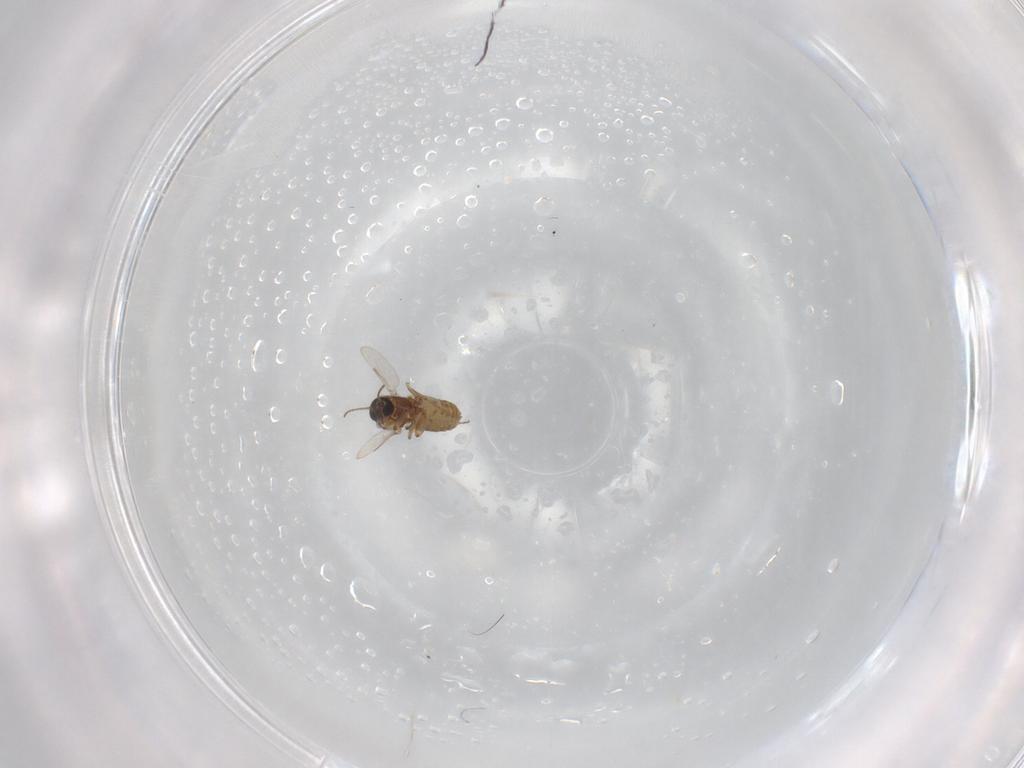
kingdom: Animalia
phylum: Arthropoda
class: Insecta
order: Diptera
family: Ceratopogonidae
